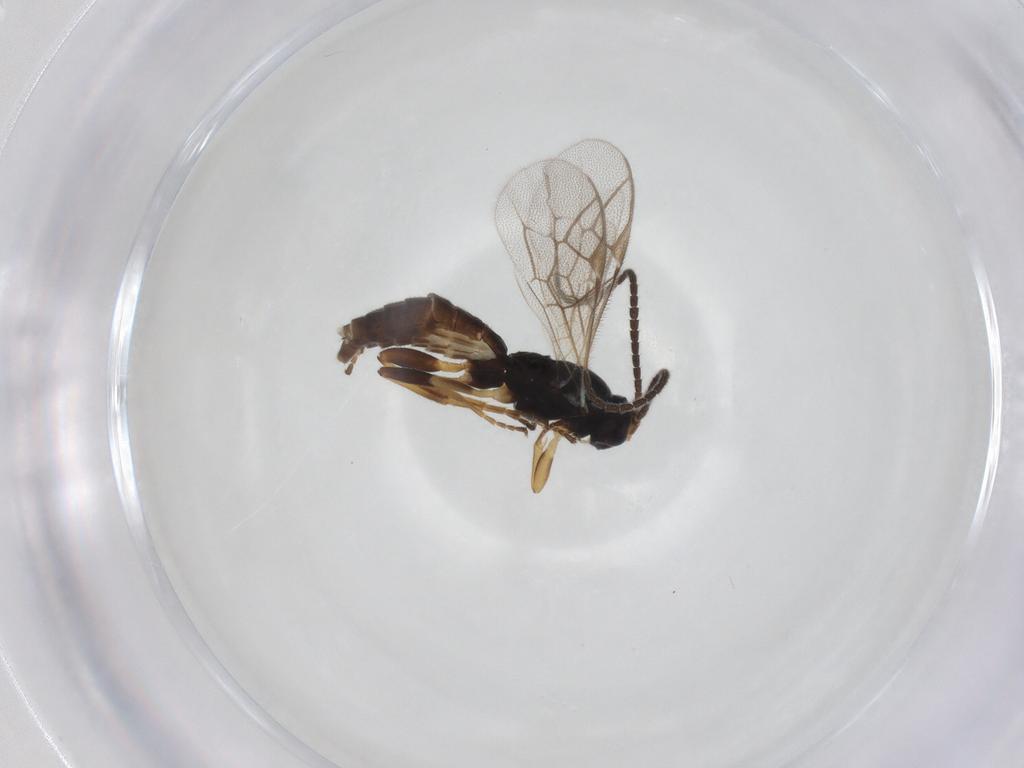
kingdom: Animalia
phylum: Arthropoda
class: Insecta
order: Hymenoptera
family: Ichneumonidae
